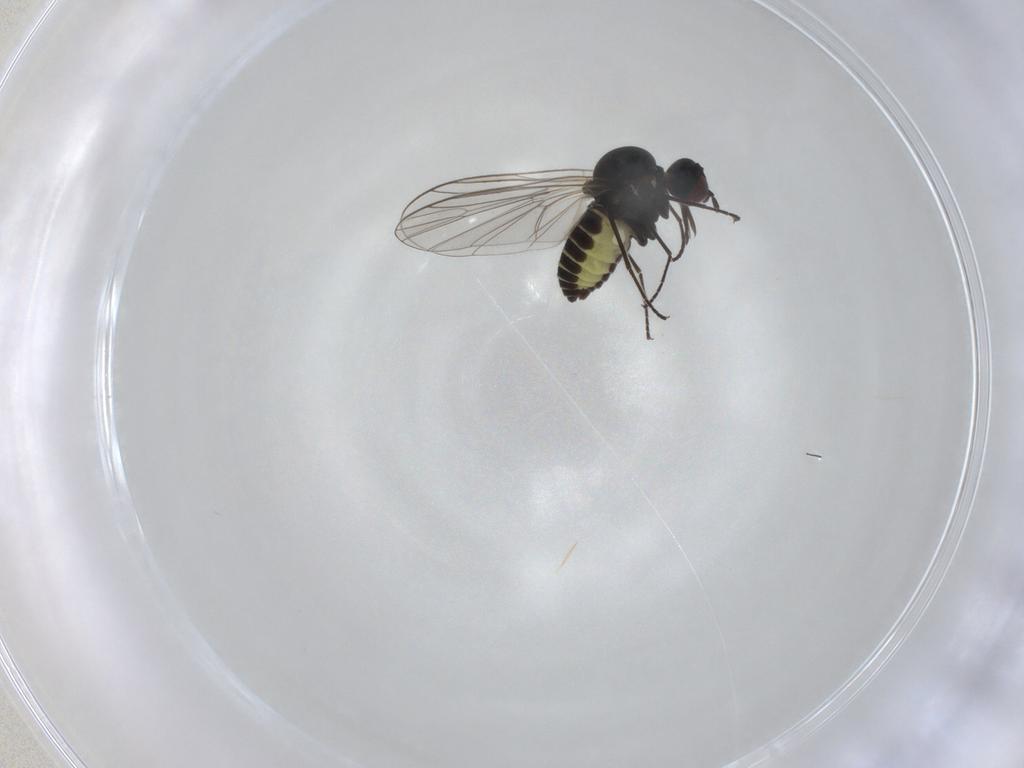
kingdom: Animalia
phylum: Arthropoda
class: Insecta
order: Diptera
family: Bombyliidae
